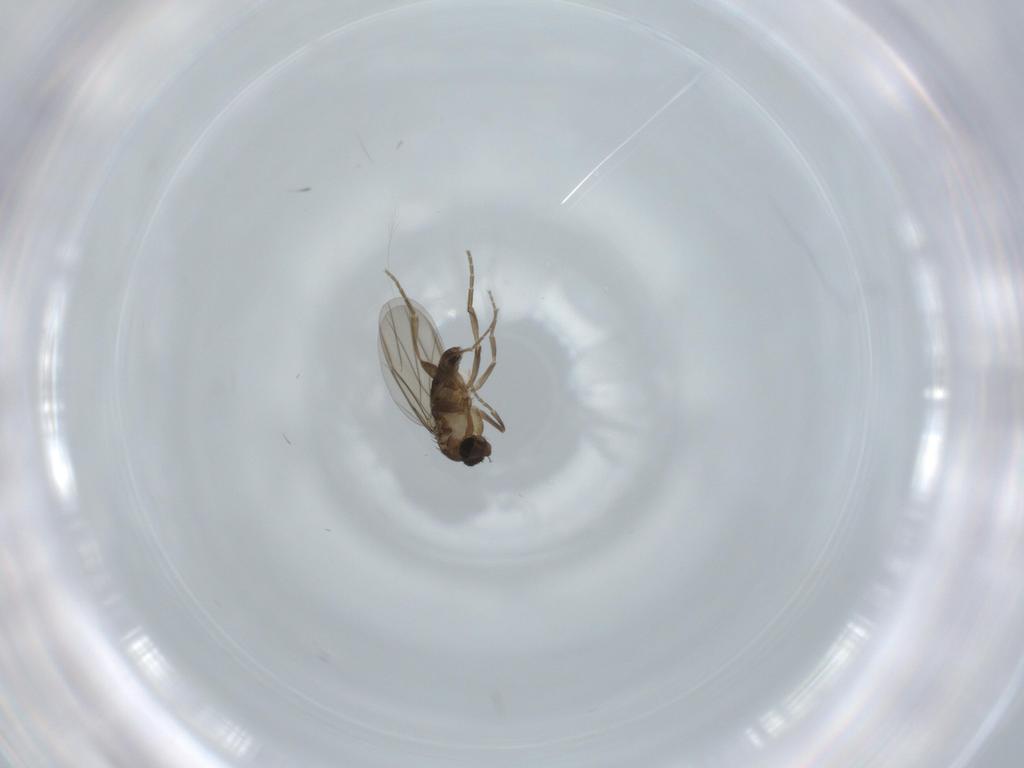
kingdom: Animalia
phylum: Arthropoda
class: Insecta
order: Diptera
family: Phoridae
